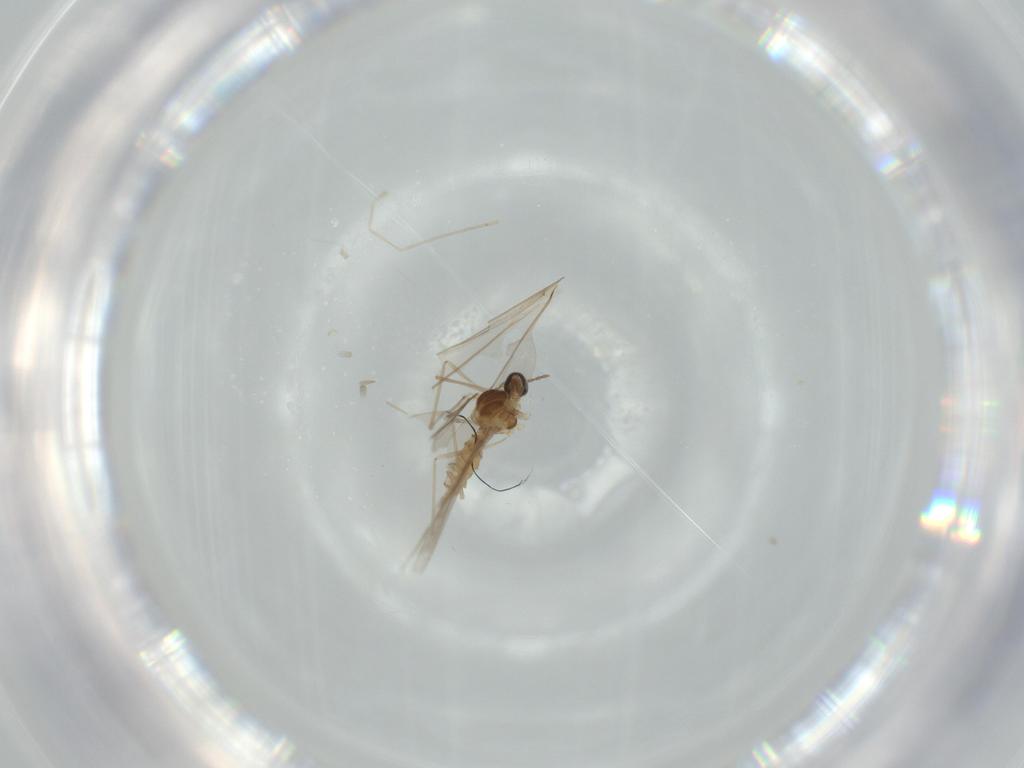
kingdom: Animalia
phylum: Arthropoda
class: Insecta
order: Diptera
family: Cecidomyiidae
